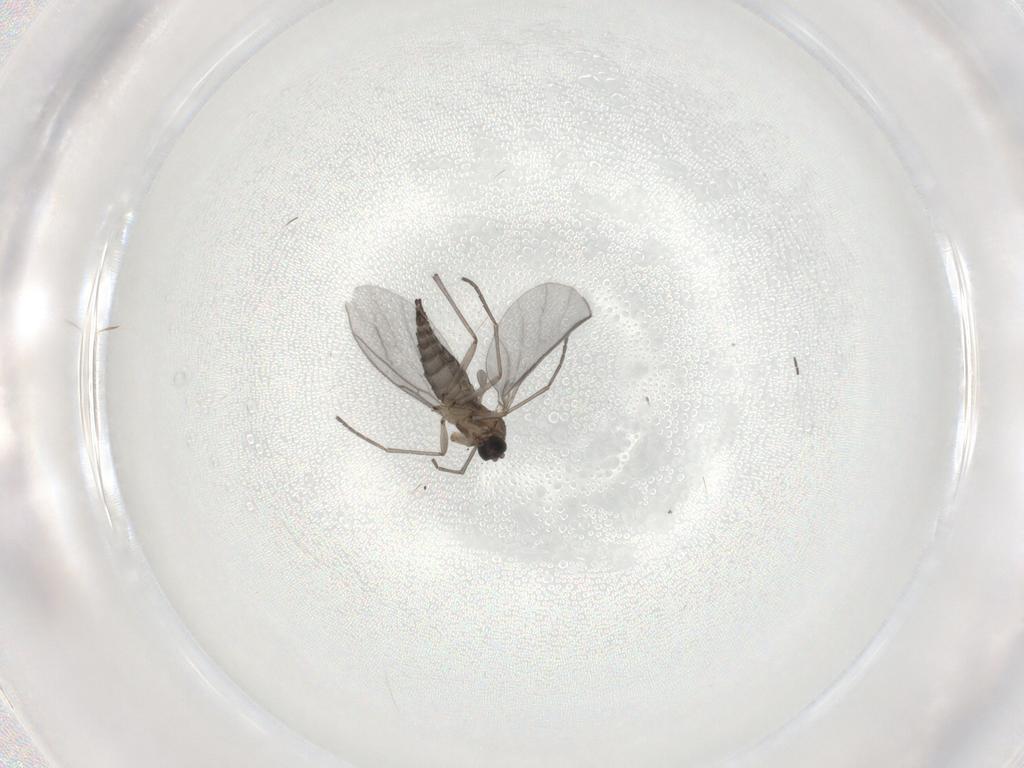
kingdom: Animalia
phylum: Arthropoda
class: Insecta
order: Diptera
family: Sciaridae
